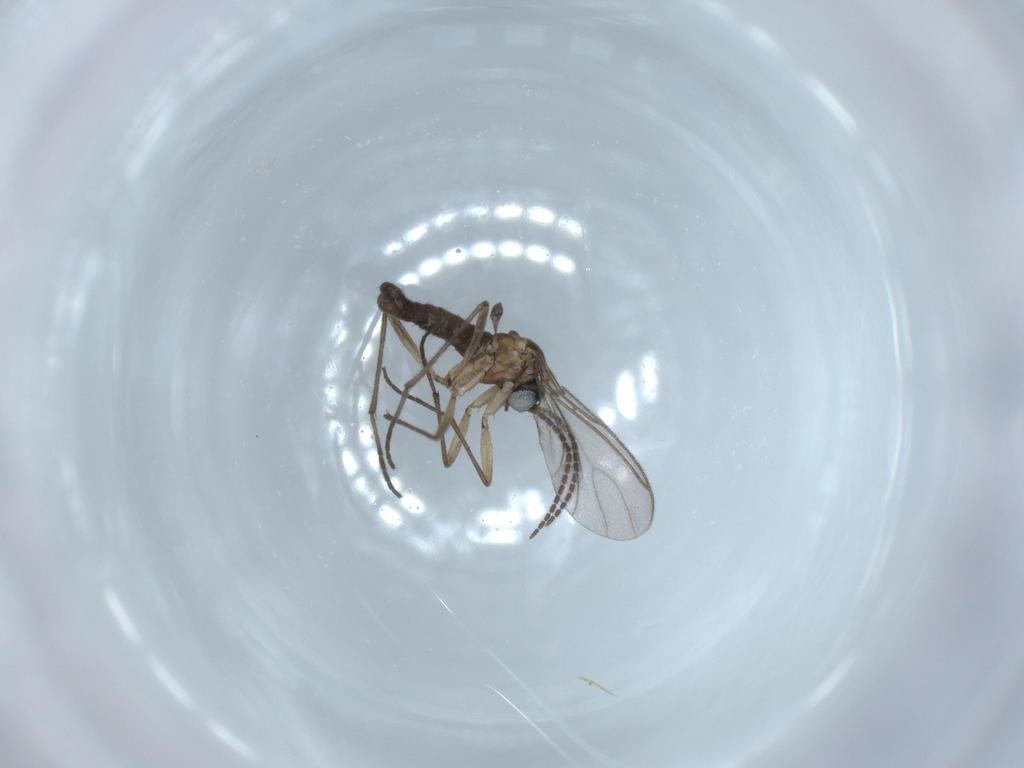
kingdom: Animalia
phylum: Arthropoda
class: Insecta
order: Diptera
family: Sciaridae
